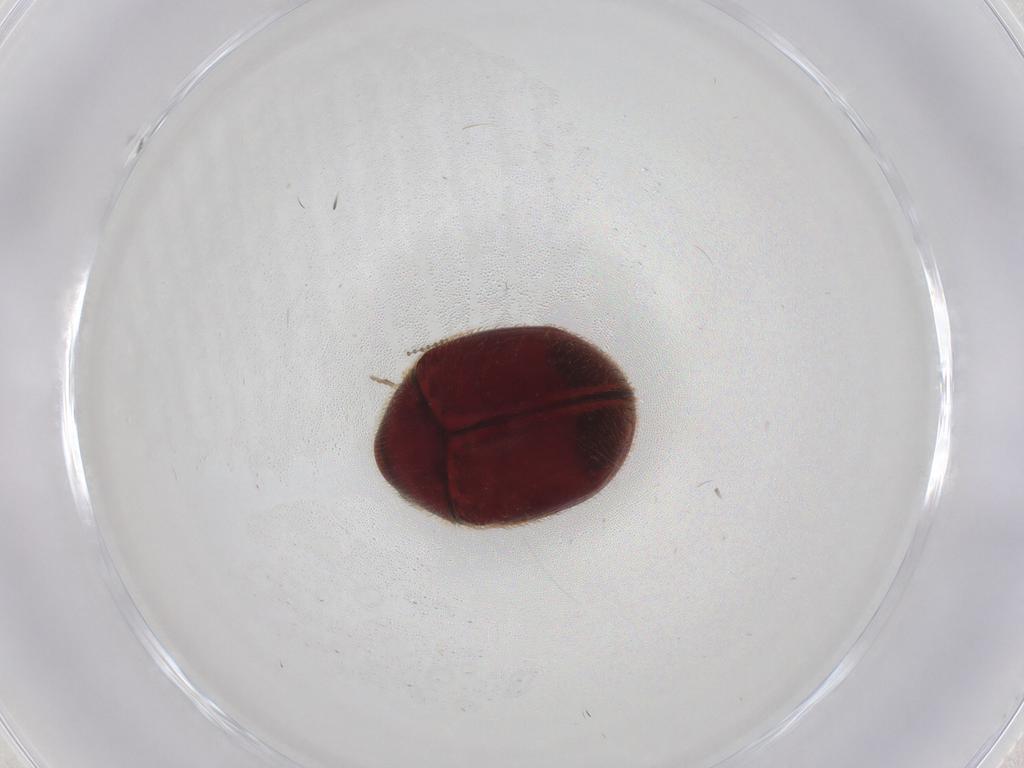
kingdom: Animalia
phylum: Arthropoda
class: Insecta
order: Coleoptera
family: Ptinidae
